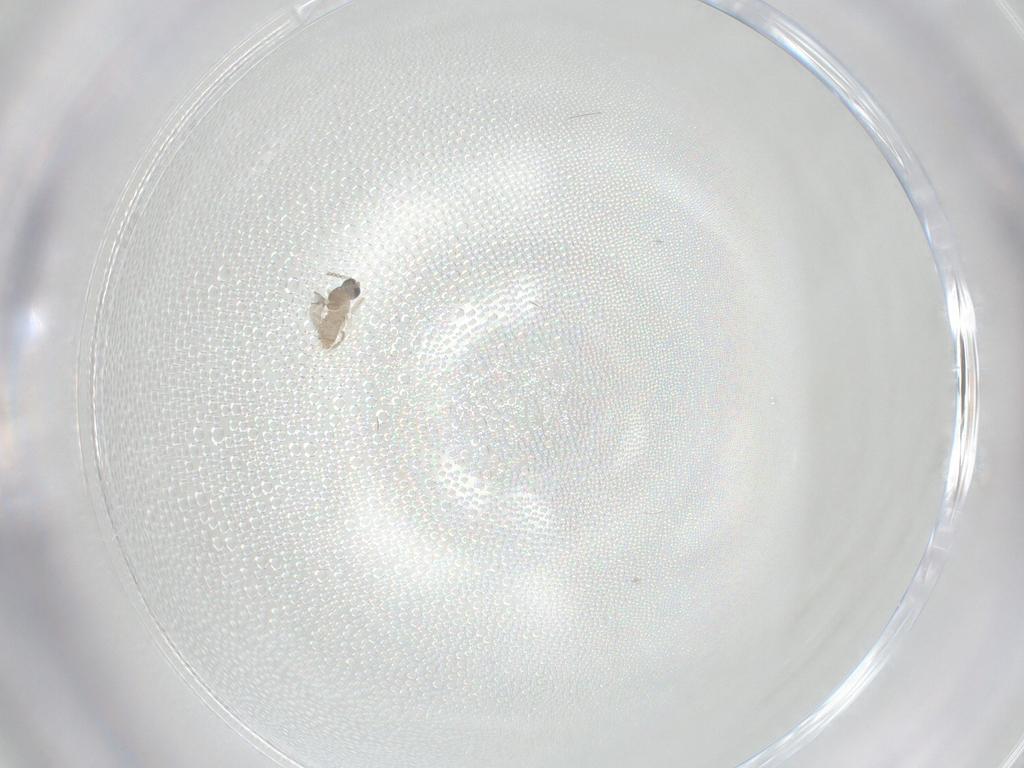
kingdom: Animalia
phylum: Arthropoda
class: Insecta
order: Diptera
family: Cecidomyiidae
